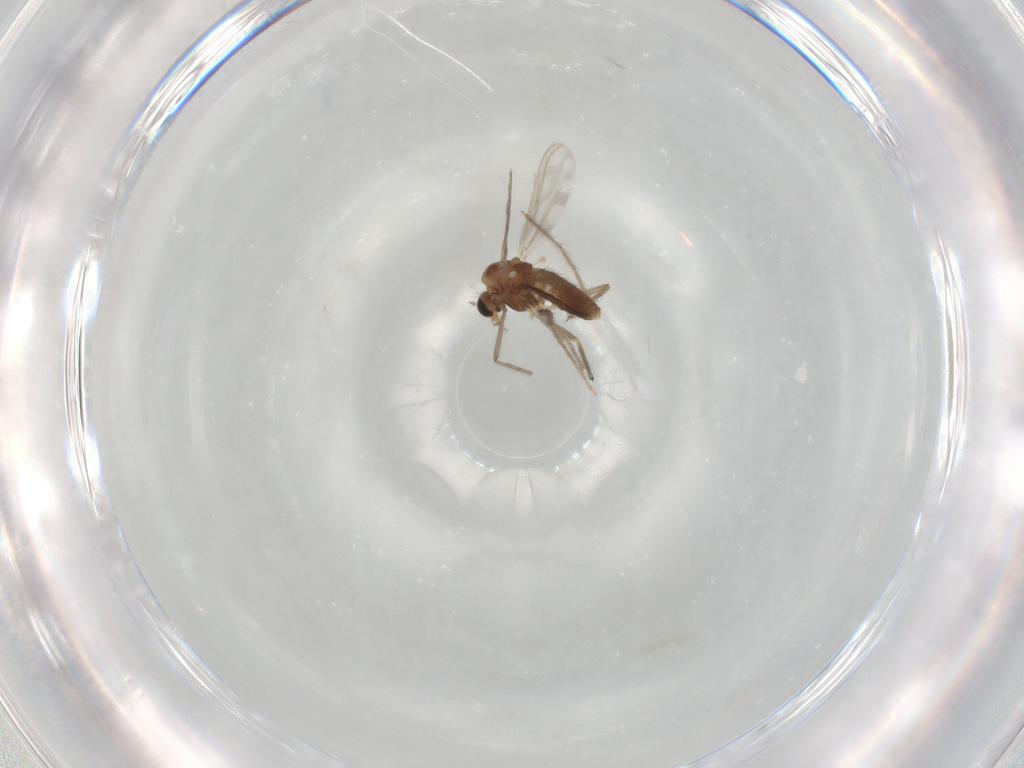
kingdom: Animalia
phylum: Arthropoda
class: Insecta
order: Diptera
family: Chironomidae
